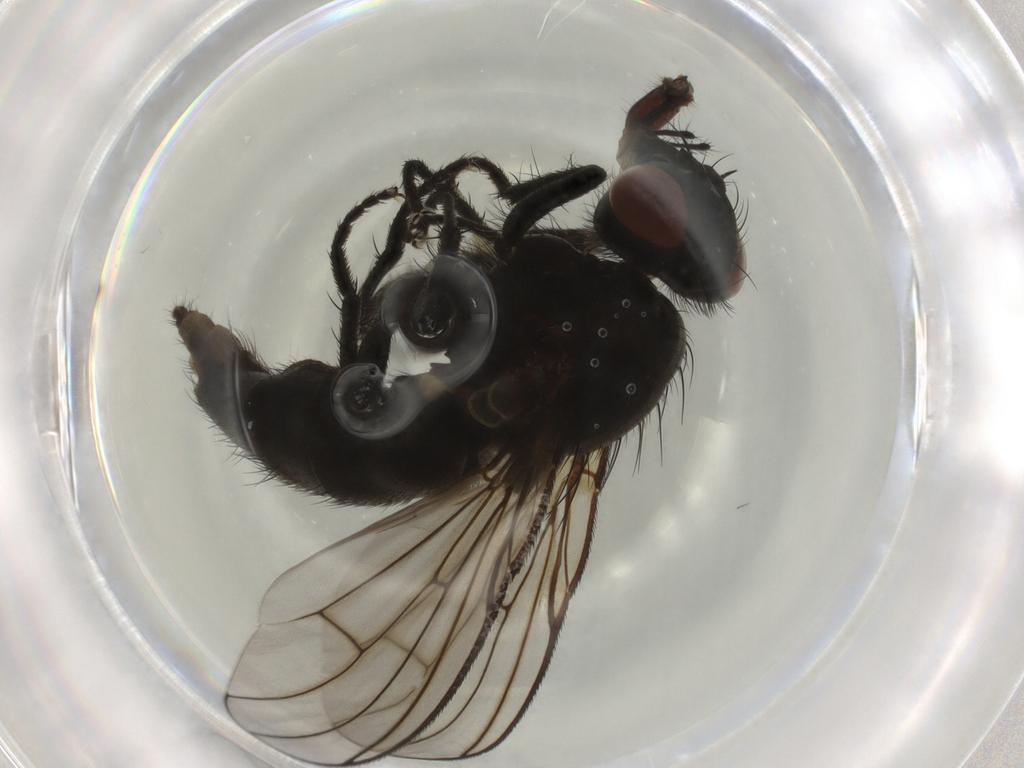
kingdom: Animalia
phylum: Arthropoda
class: Insecta
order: Diptera
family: Muscidae
